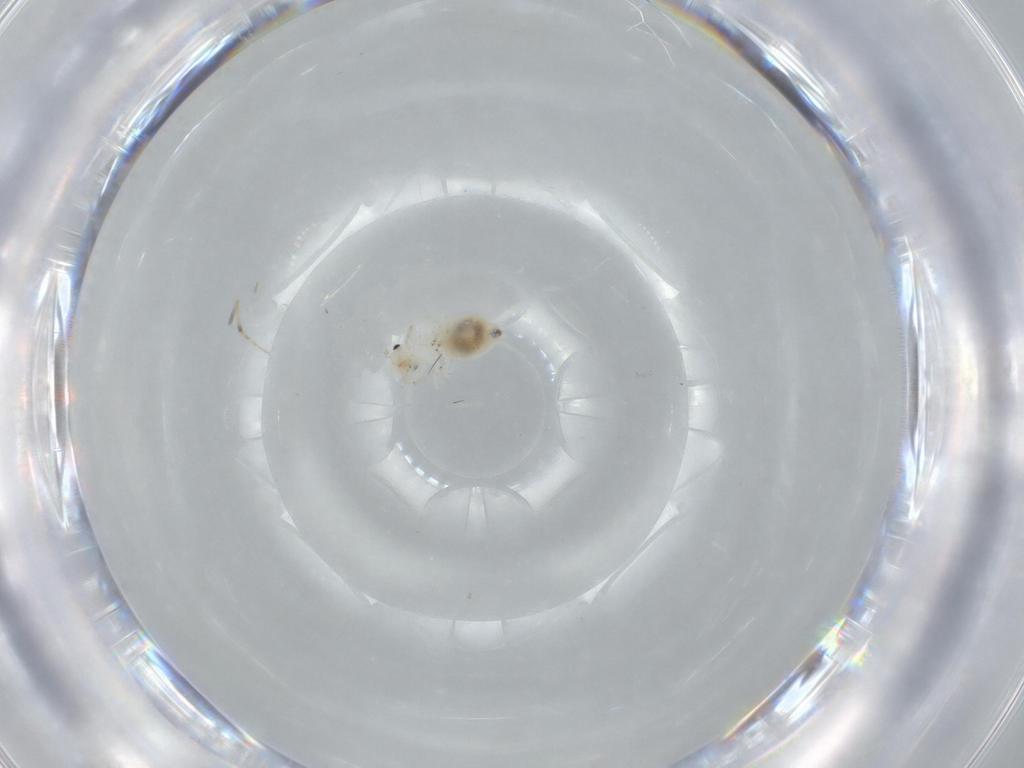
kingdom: Animalia
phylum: Arthropoda
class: Insecta
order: Psocodea
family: Caeciliusidae
